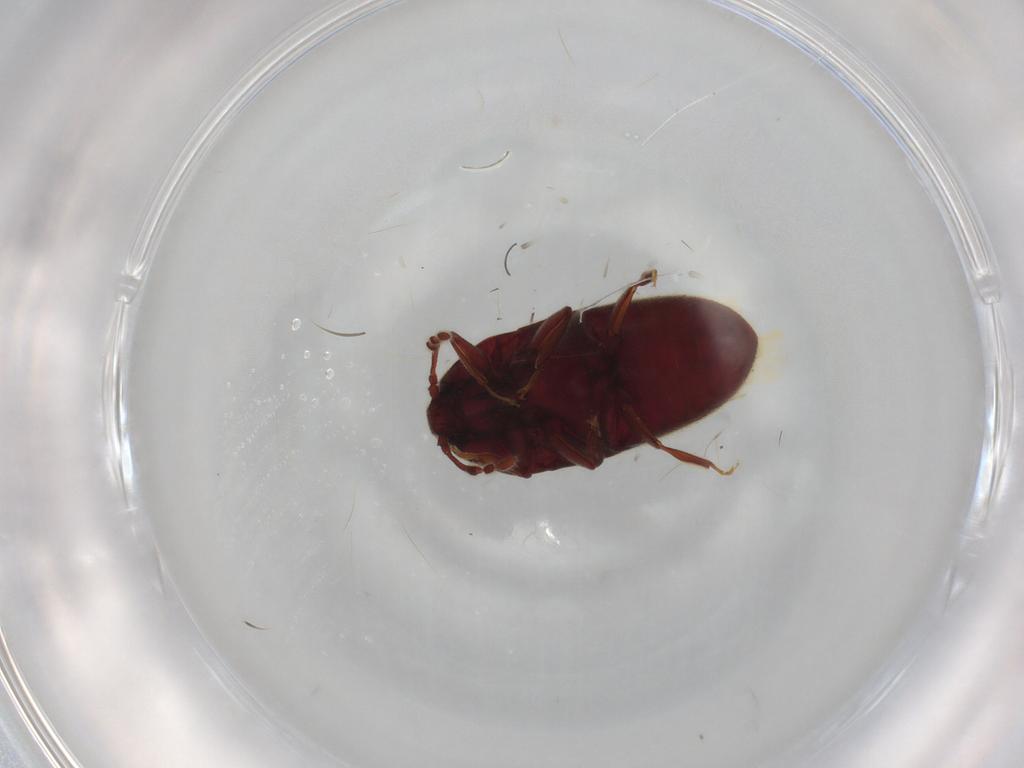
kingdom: Animalia
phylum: Arthropoda
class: Insecta
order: Coleoptera
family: Throscidae
